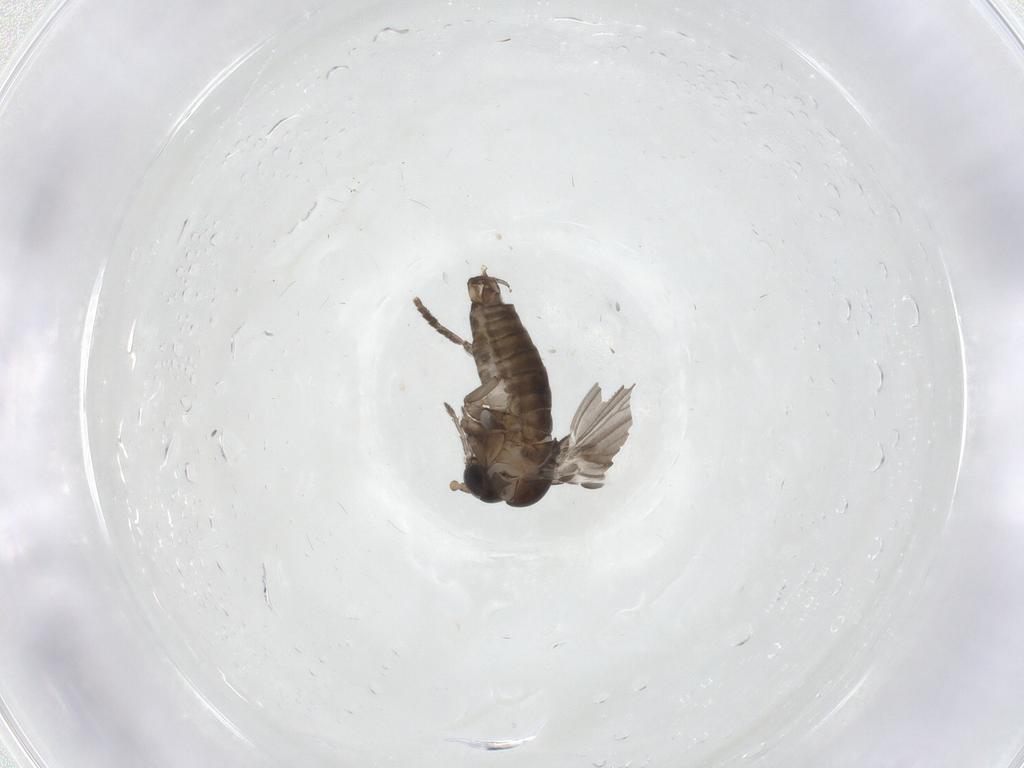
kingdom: Animalia
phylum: Arthropoda
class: Insecta
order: Diptera
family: Psychodidae
